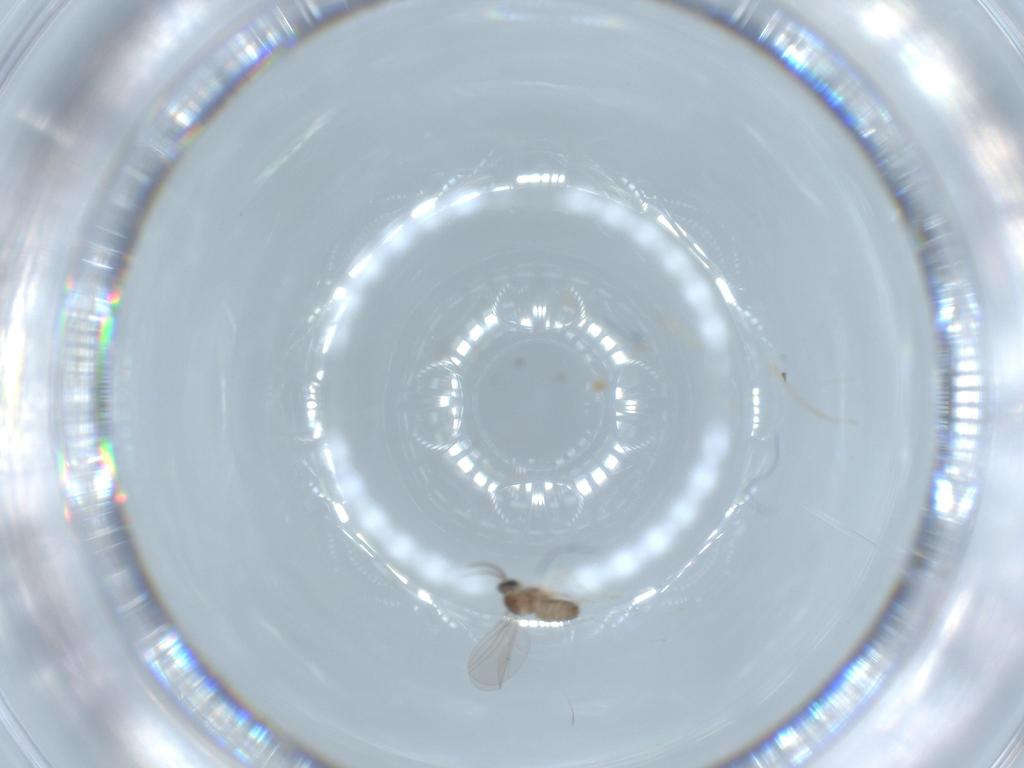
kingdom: Animalia
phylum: Arthropoda
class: Insecta
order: Diptera
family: Cecidomyiidae
